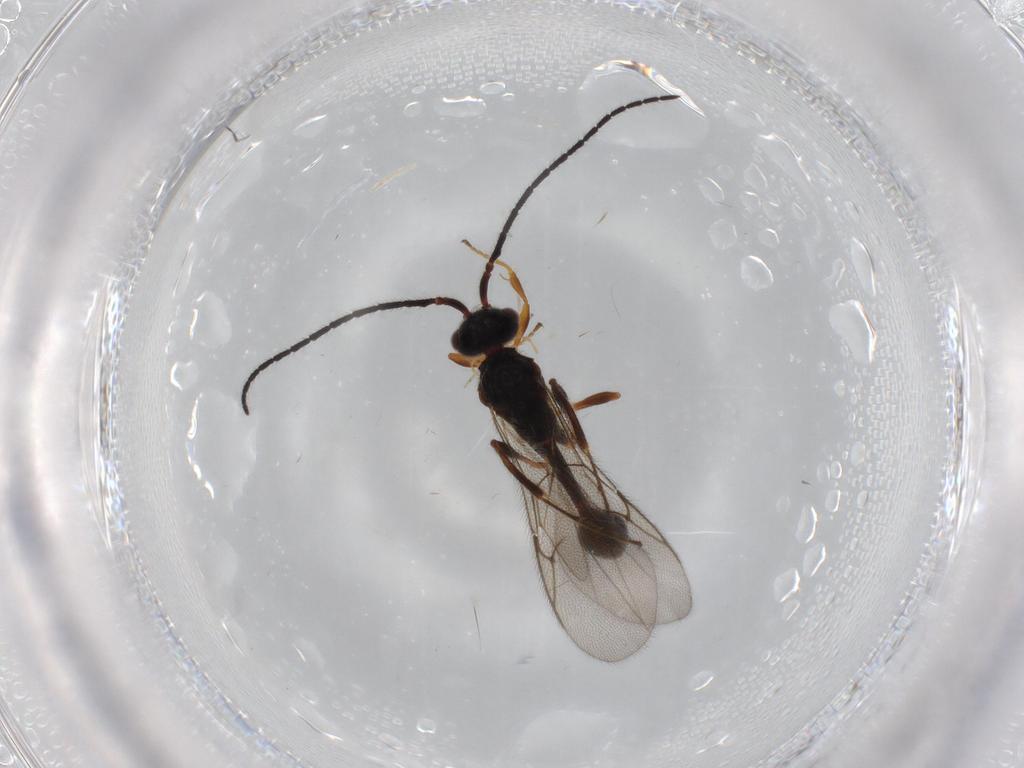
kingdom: Animalia
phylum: Arthropoda
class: Insecta
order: Hymenoptera
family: Diapriidae
